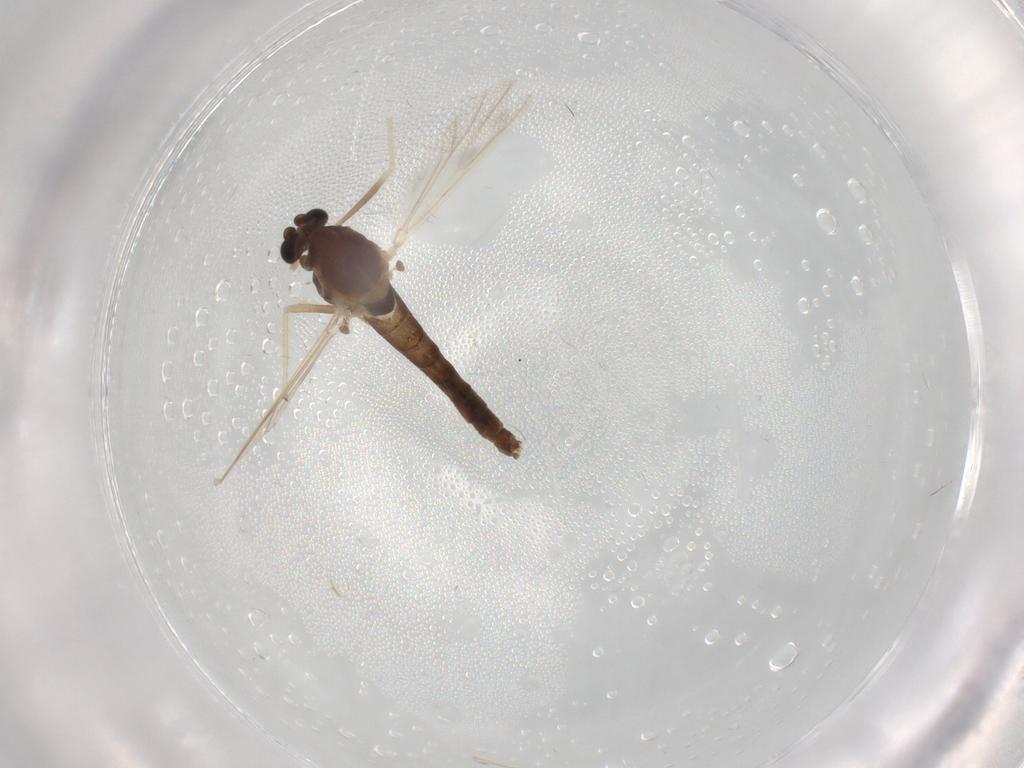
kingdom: Animalia
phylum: Arthropoda
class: Insecta
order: Diptera
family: Chironomidae
